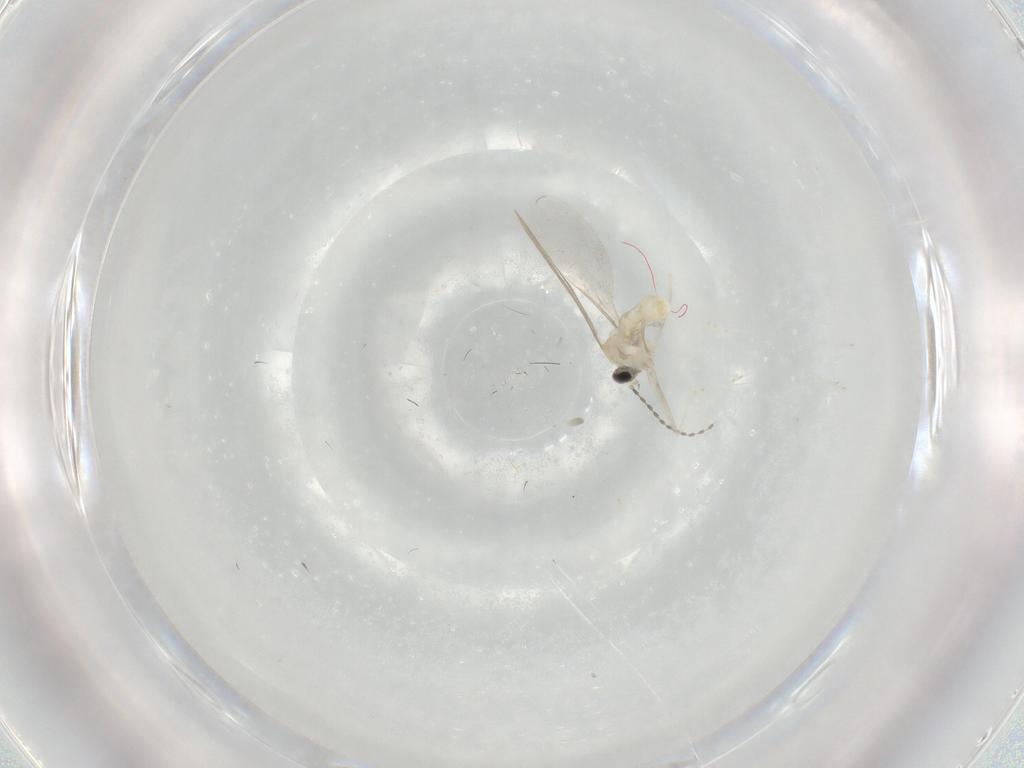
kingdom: Animalia
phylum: Arthropoda
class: Insecta
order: Diptera
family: Cecidomyiidae
